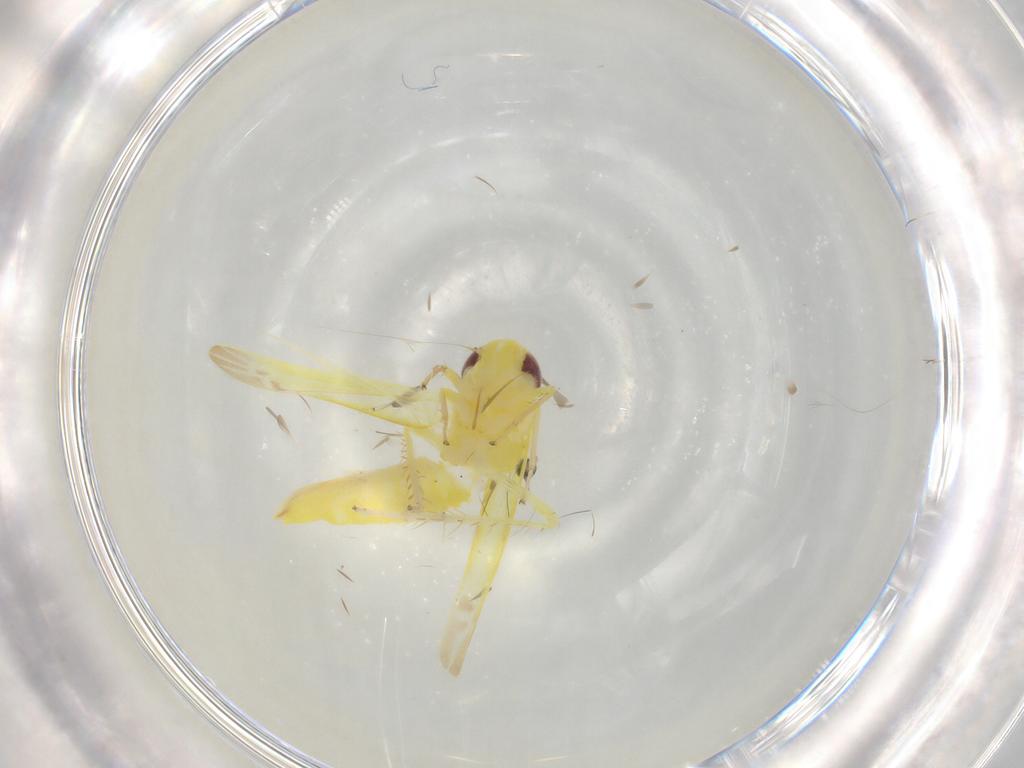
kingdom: Animalia
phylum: Arthropoda
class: Insecta
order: Hemiptera
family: Cicadellidae
